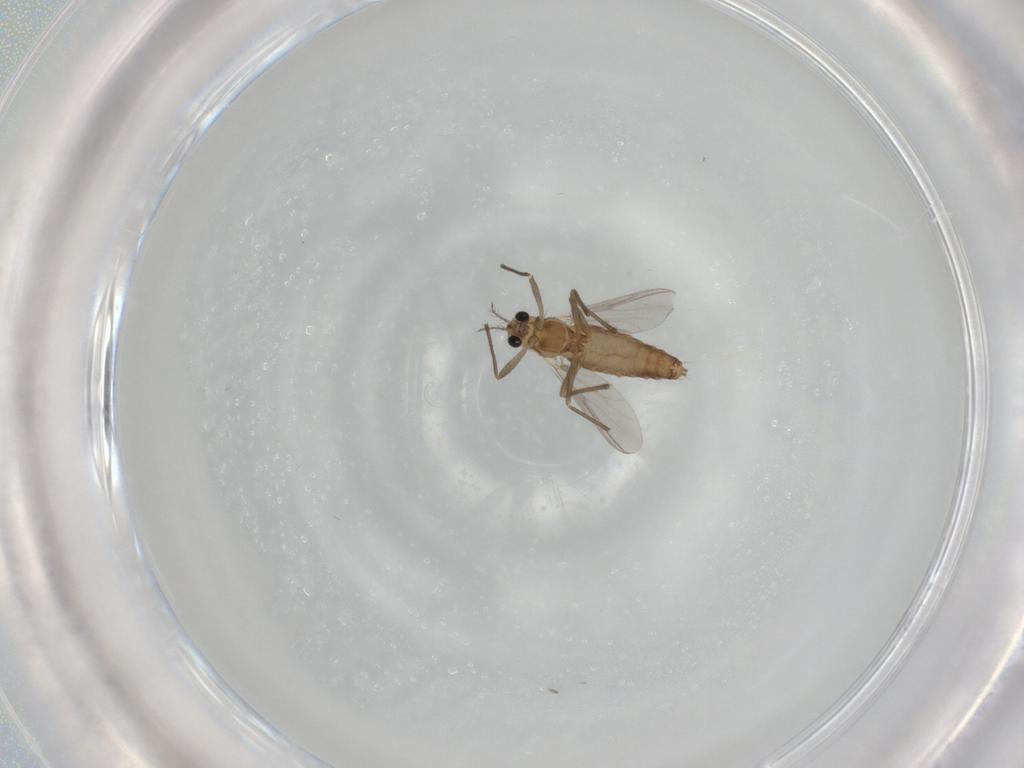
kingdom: Animalia
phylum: Arthropoda
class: Insecta
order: Diptera
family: Chironomidae
